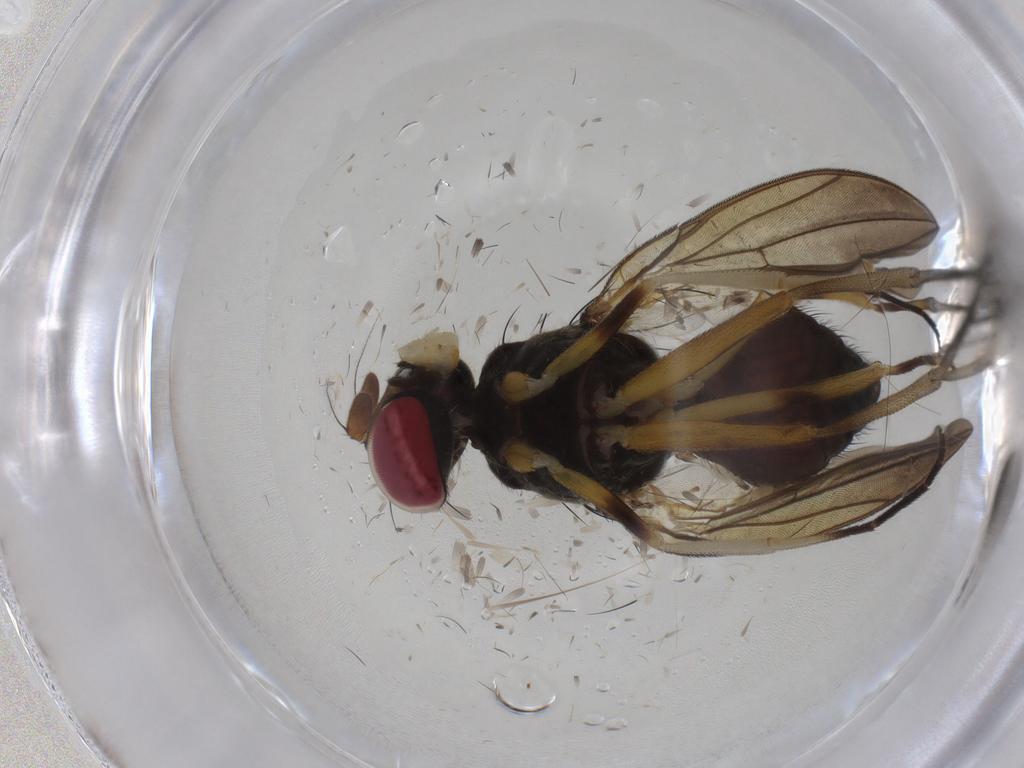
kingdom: Animalia
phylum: Arthropoda
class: Insecta
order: Diptera
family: Heleomyzidae
